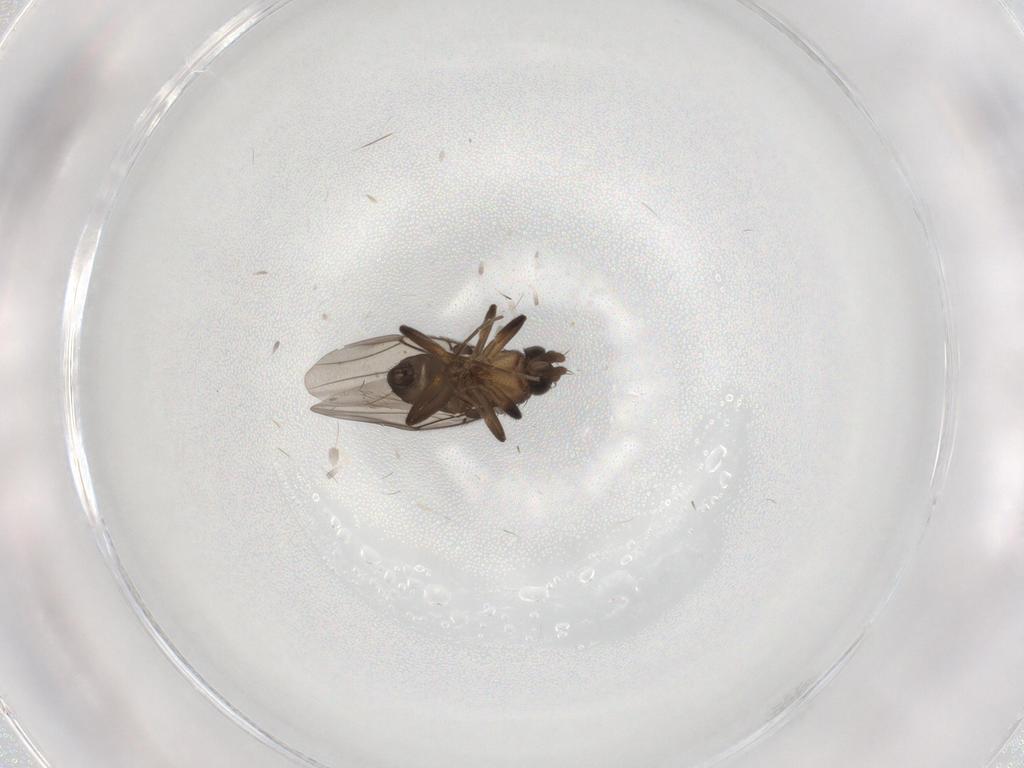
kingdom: Animalia
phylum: Arthropoda
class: Insecta
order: Diptera
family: Phoridae
